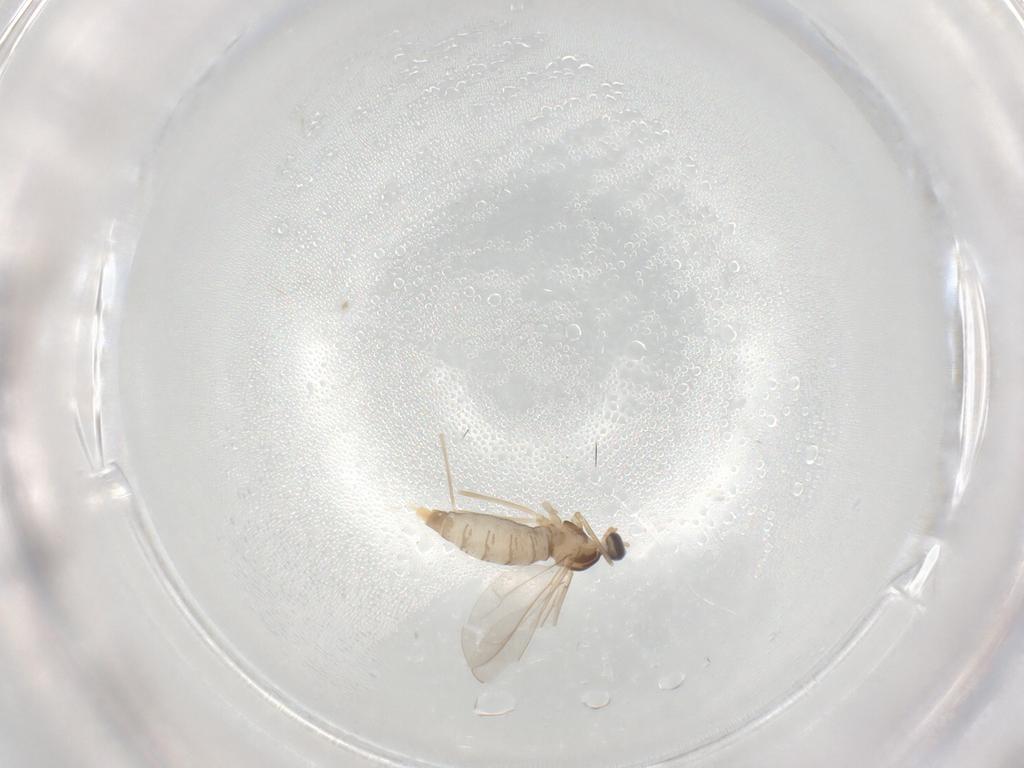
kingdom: Animalia
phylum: Arthropoda
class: Insecta
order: Diptera
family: Cecidomyiidae
